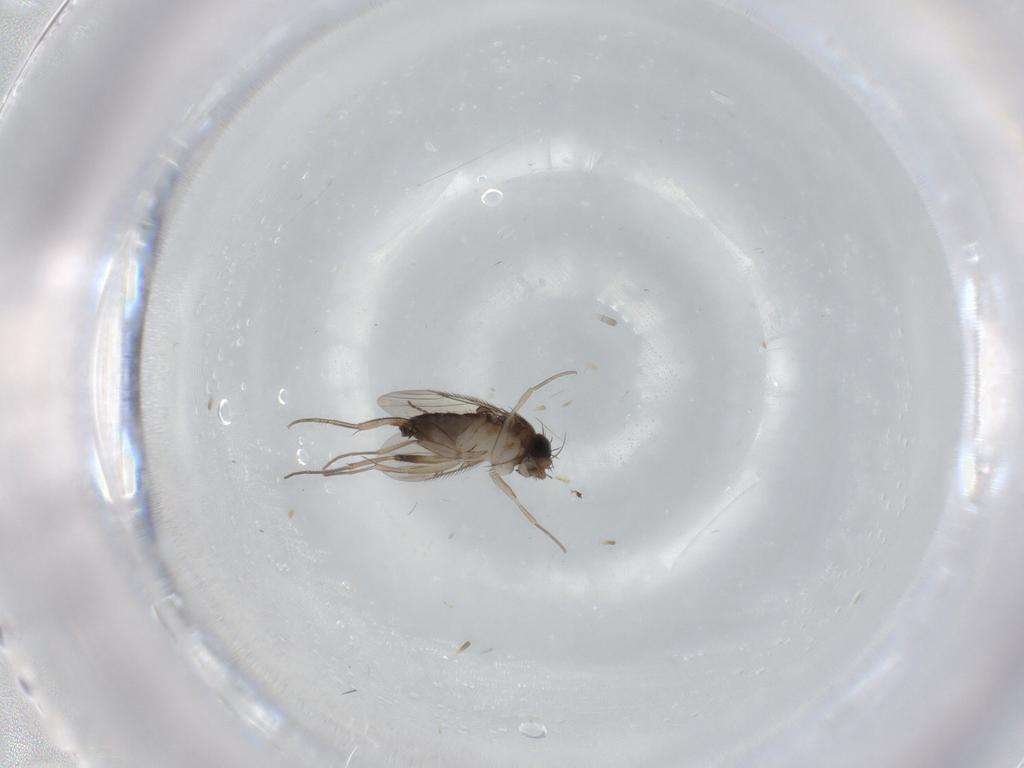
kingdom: Animalia
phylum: Arthropoda
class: Insecta
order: Diptera
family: Phoridae
